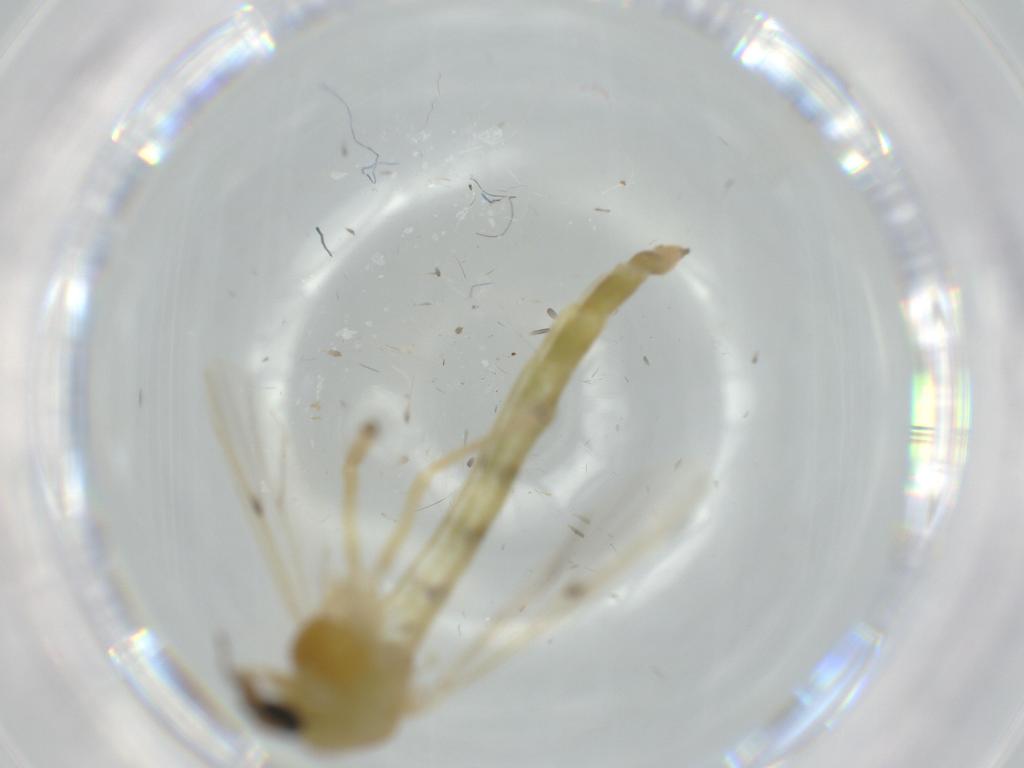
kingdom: Animalia
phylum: Arthropoda
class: Insecta
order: Diptera
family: Chironomidae
